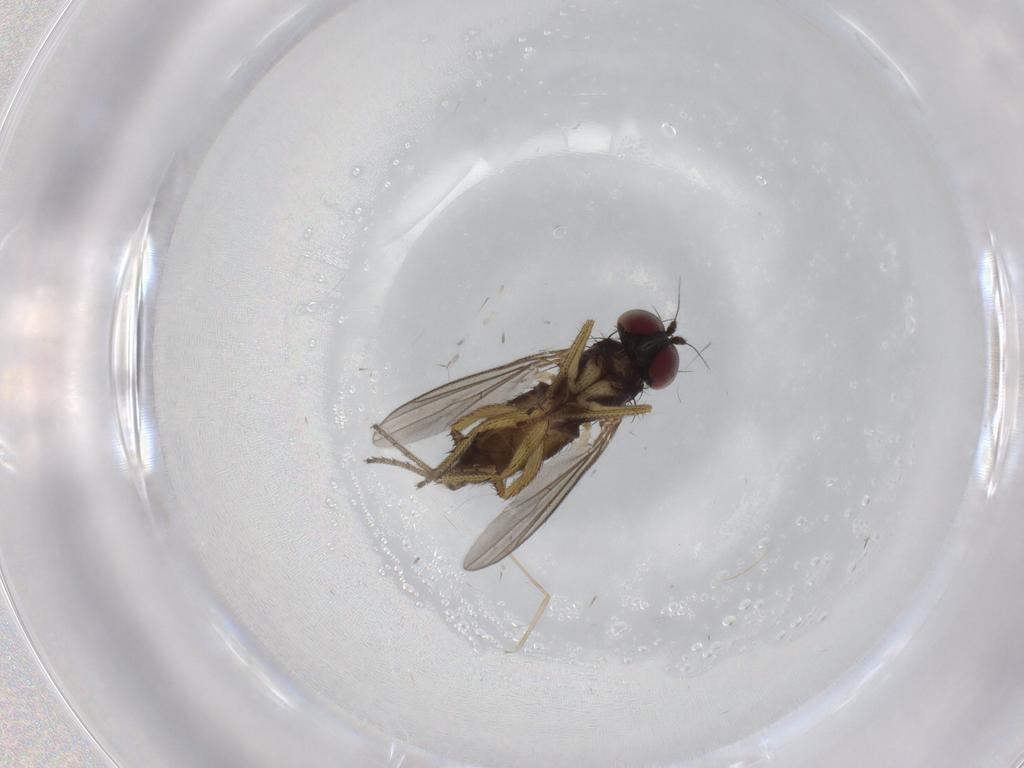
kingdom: Animalia
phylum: Arthropoda
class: Insecta
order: Diptera
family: Dolichopodidae
